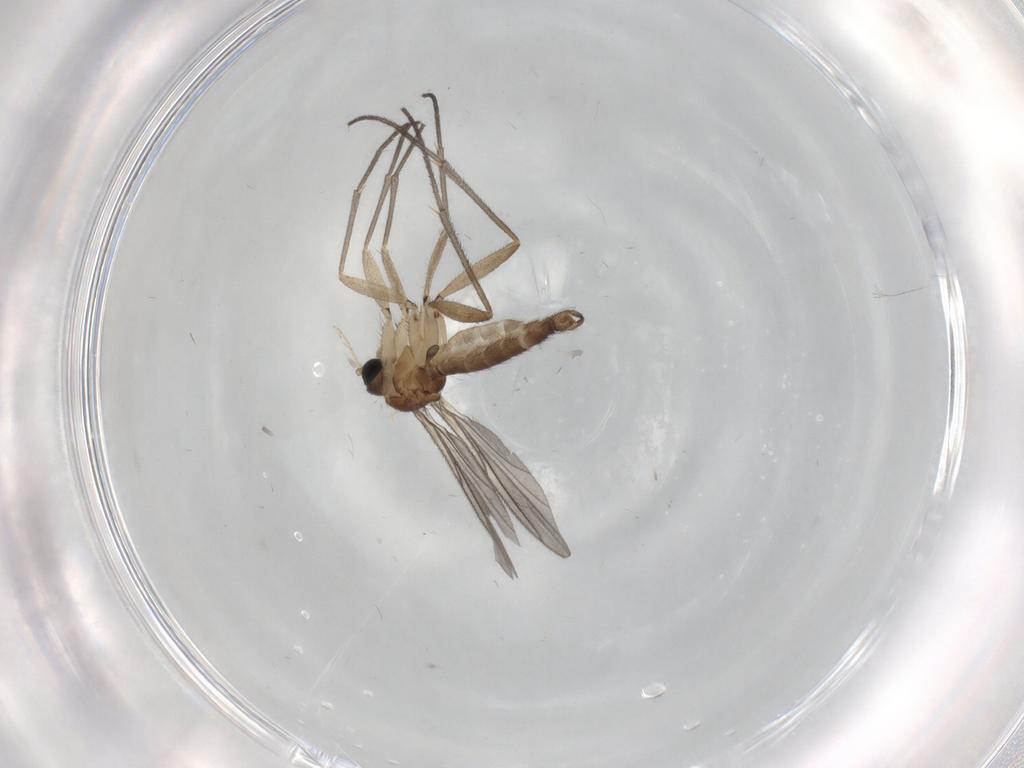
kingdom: Animalia
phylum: Arthropoda
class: Insecta
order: Diptera
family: Sciaridae
